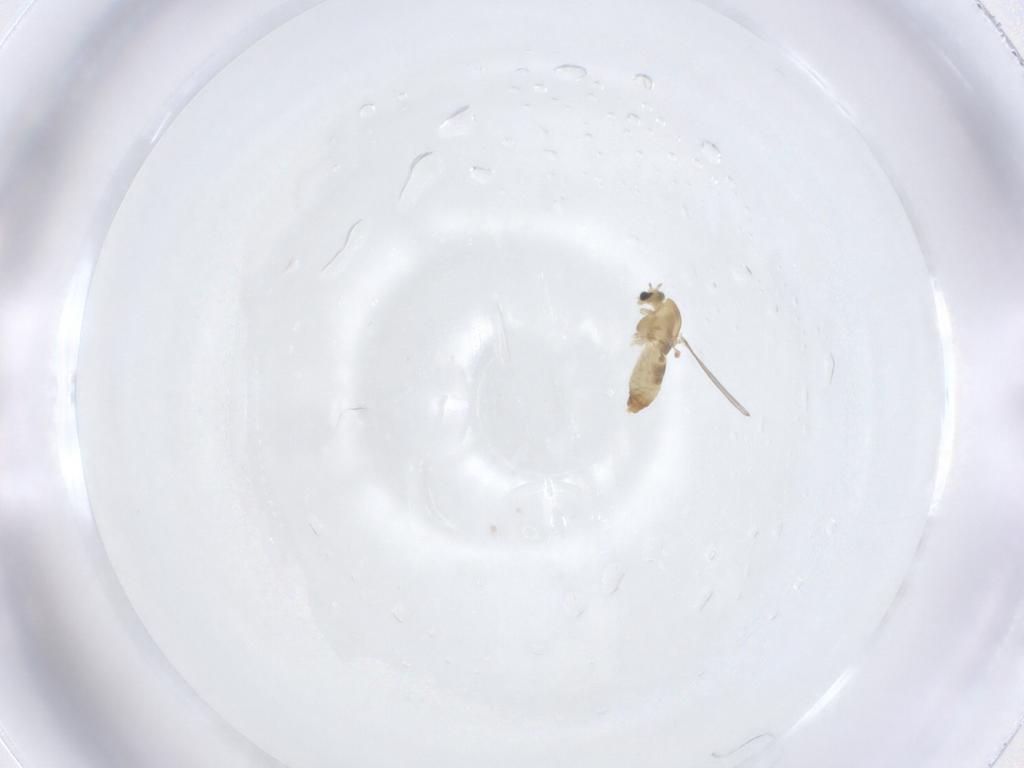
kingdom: Animalia
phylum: Arthropoda
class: Insecta
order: Diptera
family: Chironomidae
